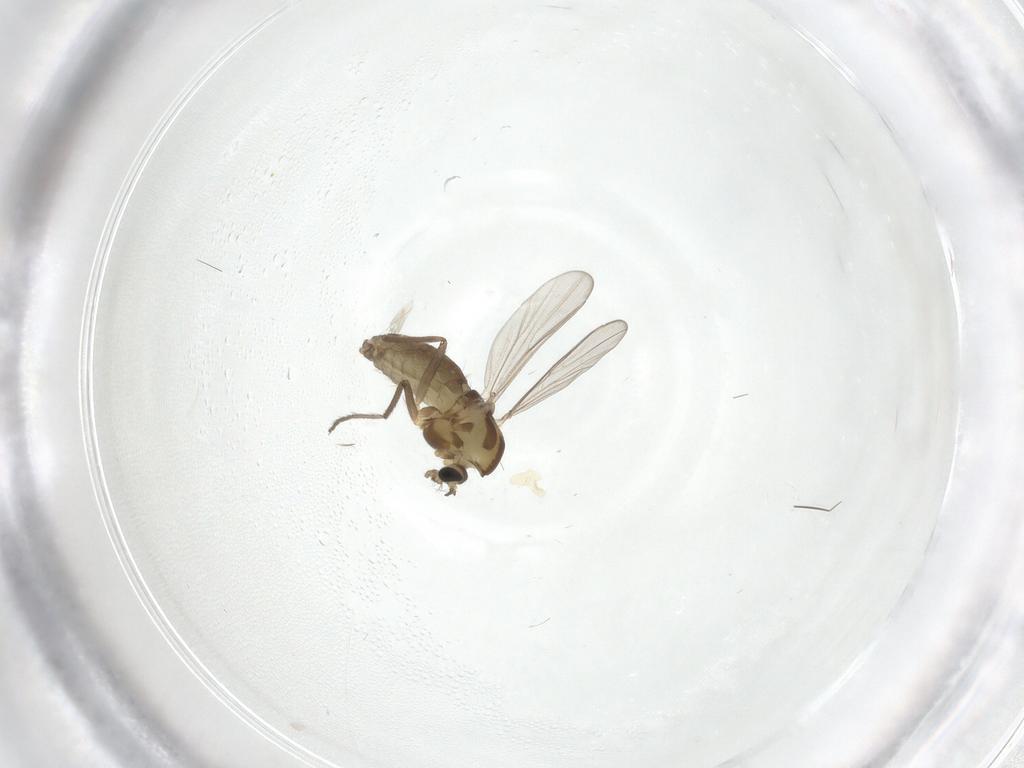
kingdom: Animalia
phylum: Arthropoda
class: Insecta
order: Diptera
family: Chironomidae
